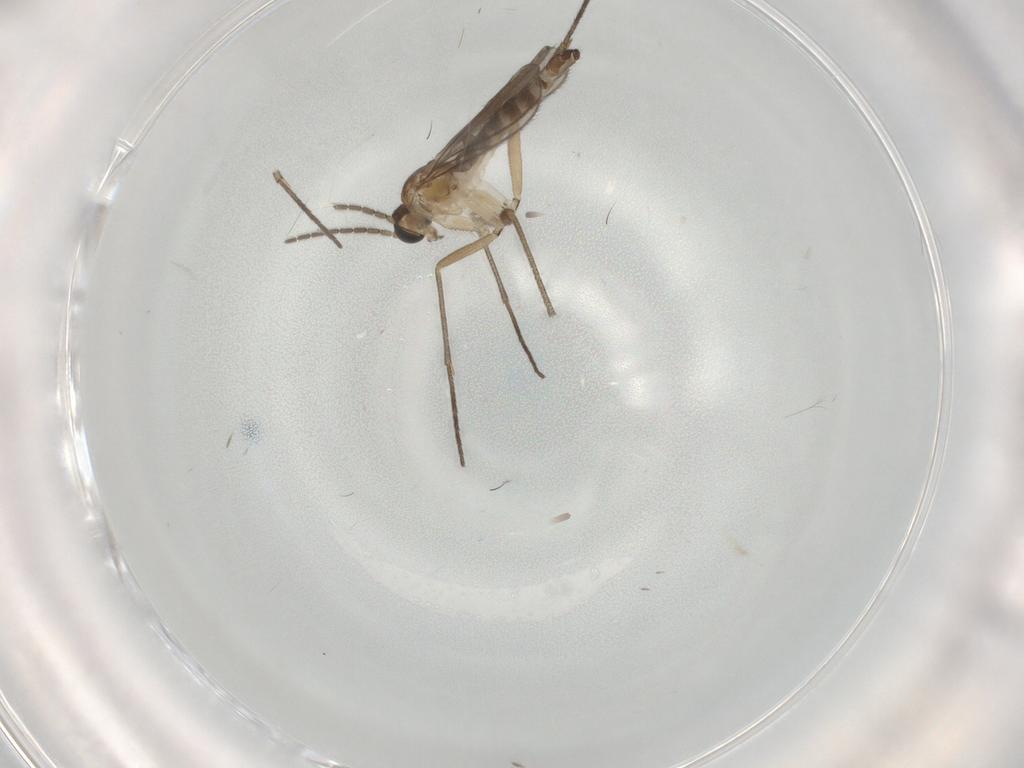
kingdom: Animalia
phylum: Arthropoda
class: Insecta
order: Diptera
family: Sciaridae
